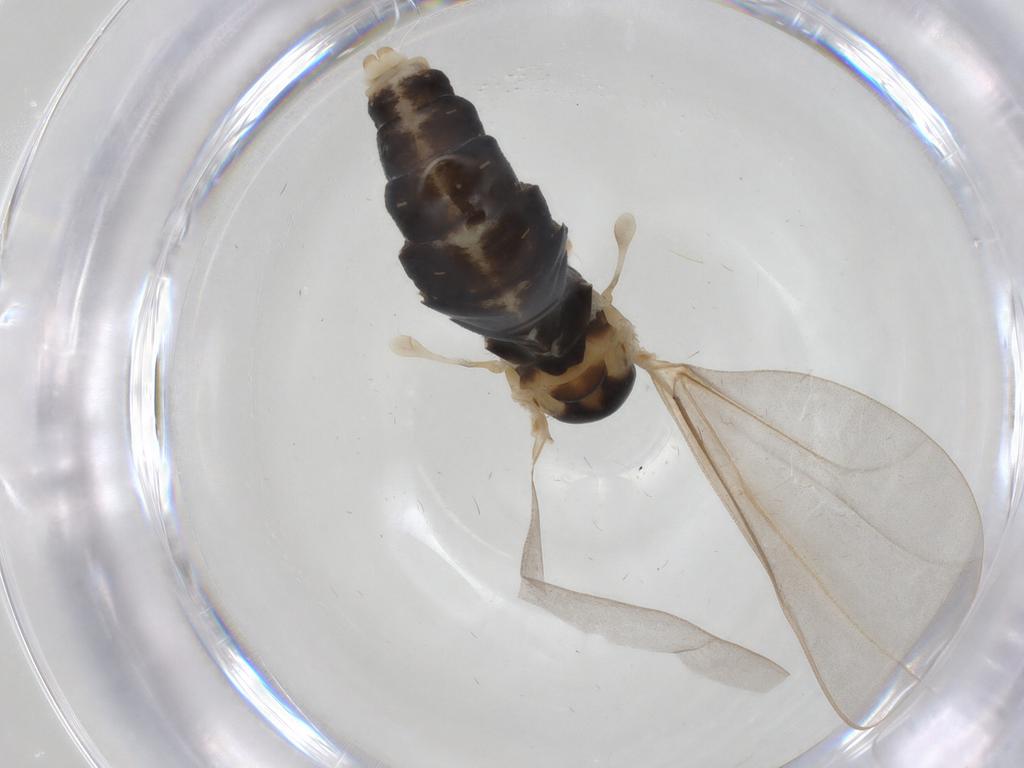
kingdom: Animalia
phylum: Arthropoda
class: Insecta
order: Diptera
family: Cecidomyiidae
